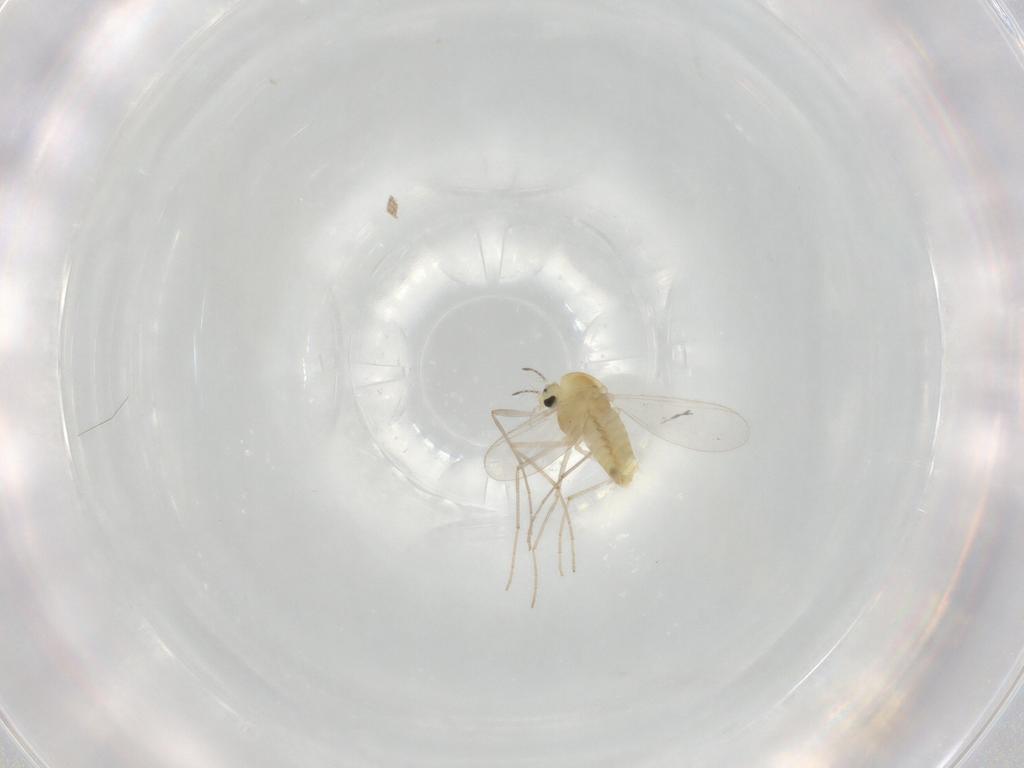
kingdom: Animalia
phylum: Arthropoda
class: Insecta
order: Diptera
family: Chironomidae
